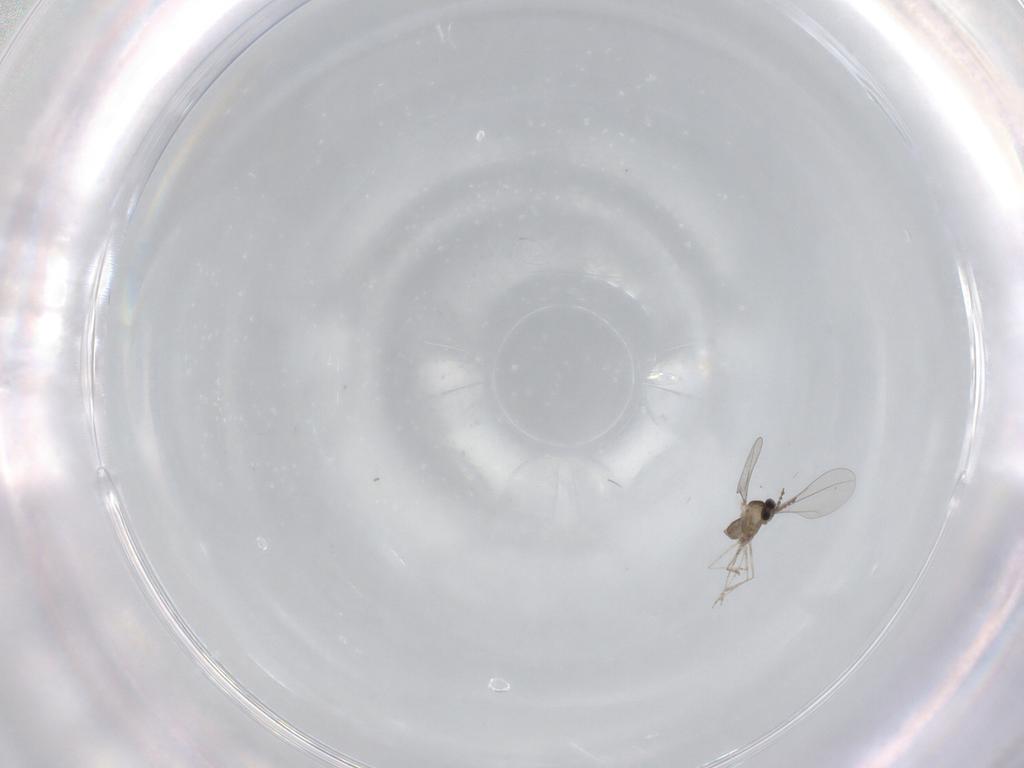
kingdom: Animalia
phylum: Arthropoda
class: Insecta
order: Diptera
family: Cecidomyiidae
